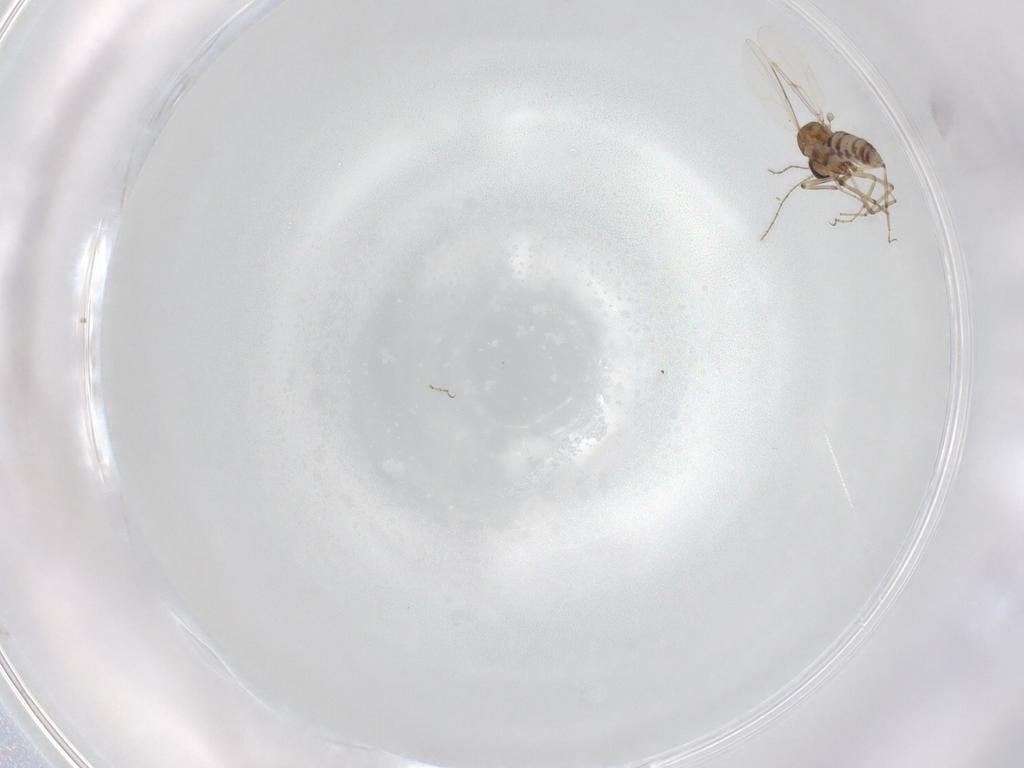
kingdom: Animalia
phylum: Arthropoda
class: Insecta
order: Diptera
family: Ceratopogonidae
